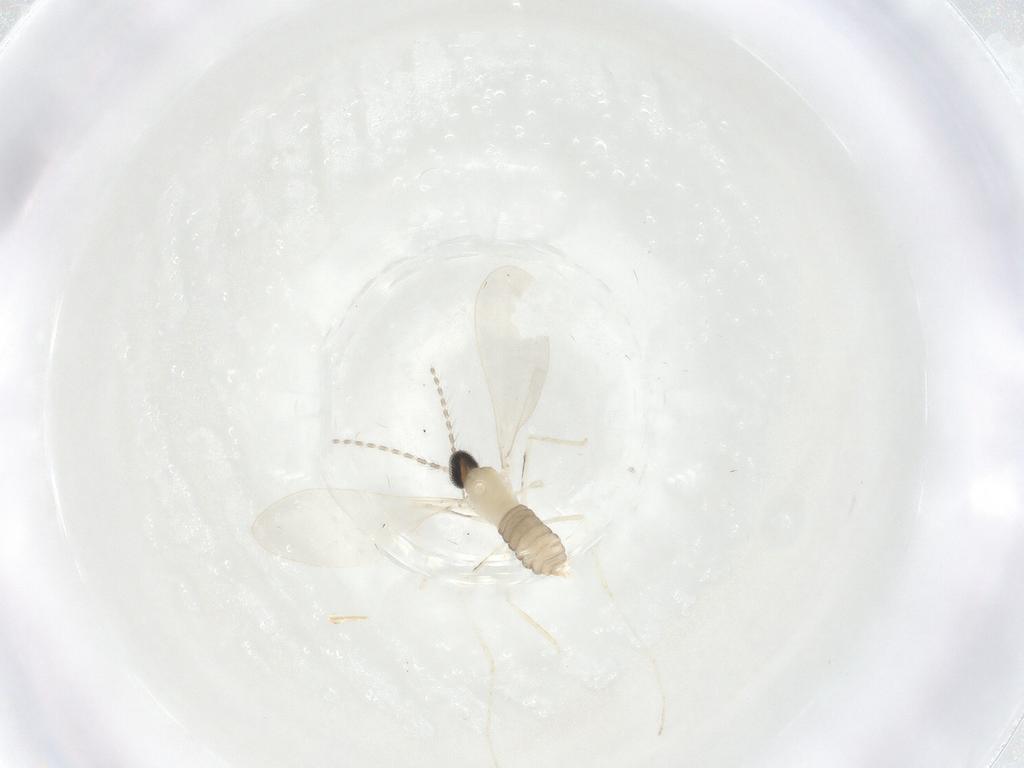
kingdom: Animalia
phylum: Arthropoda
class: Insecta
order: Diptera
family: Cecidomyiidae
